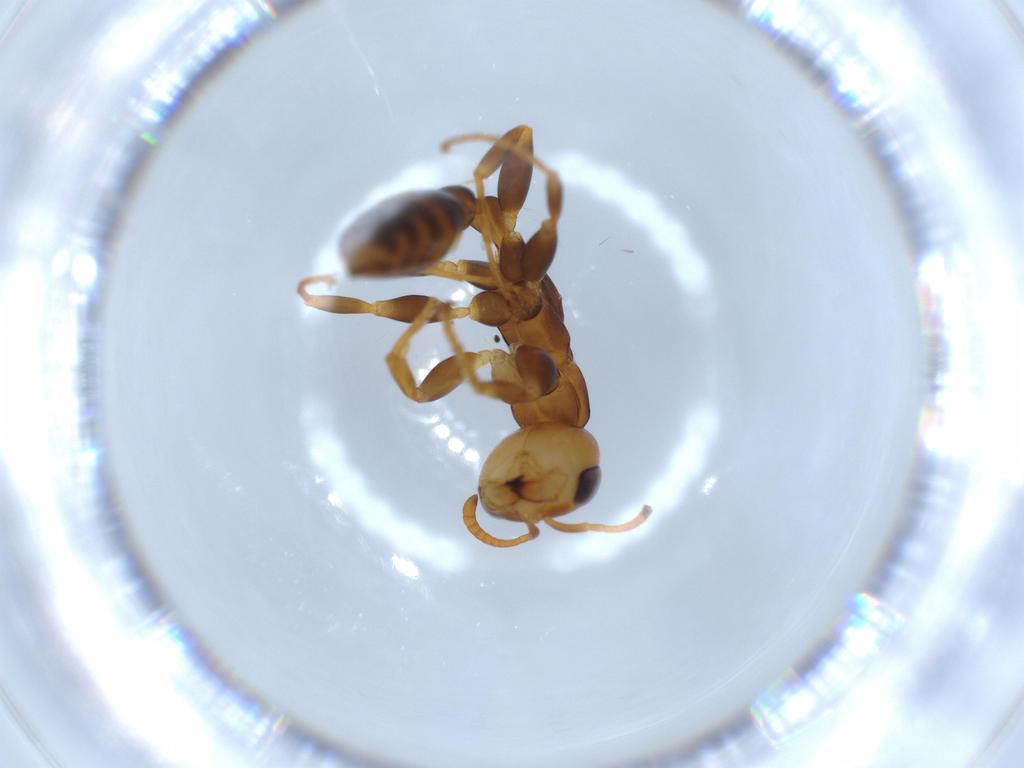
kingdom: Animalia
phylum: Arthropoda
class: Insecta
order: Hymenoptera
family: Formicidae
